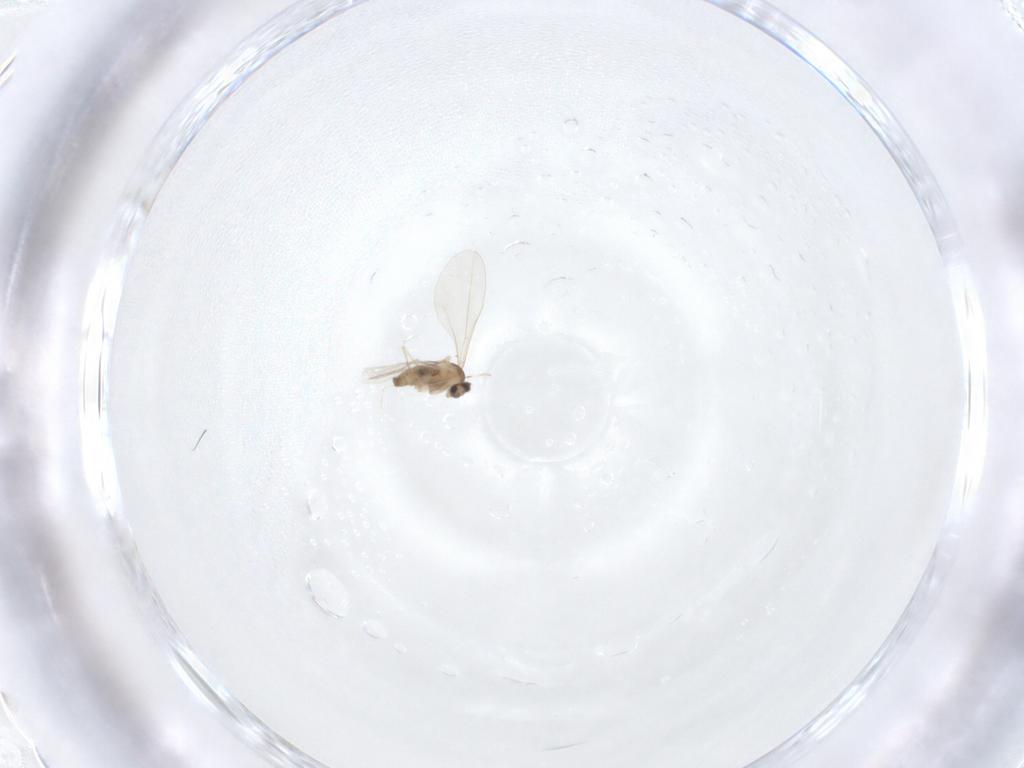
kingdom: Animalia
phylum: Arthropoda
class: Insecta
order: Diptera
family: Cecidomyiidae
